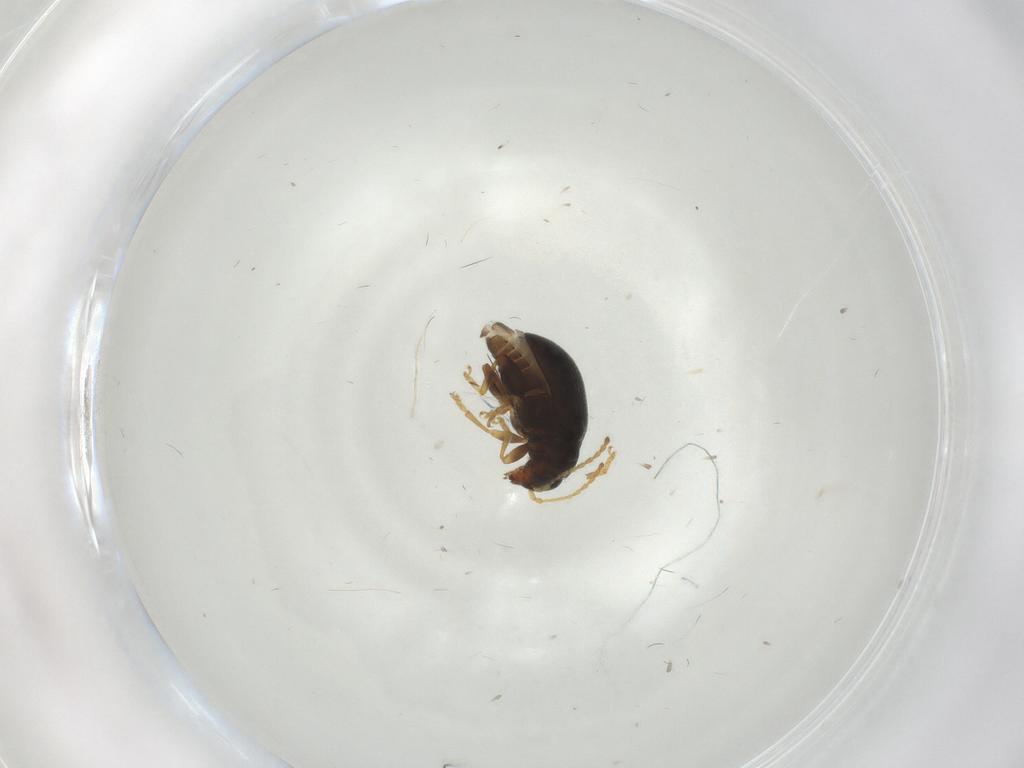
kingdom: Animalia
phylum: Arthropoda
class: Insecta
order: Coleoptera
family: Chrysomelidae
